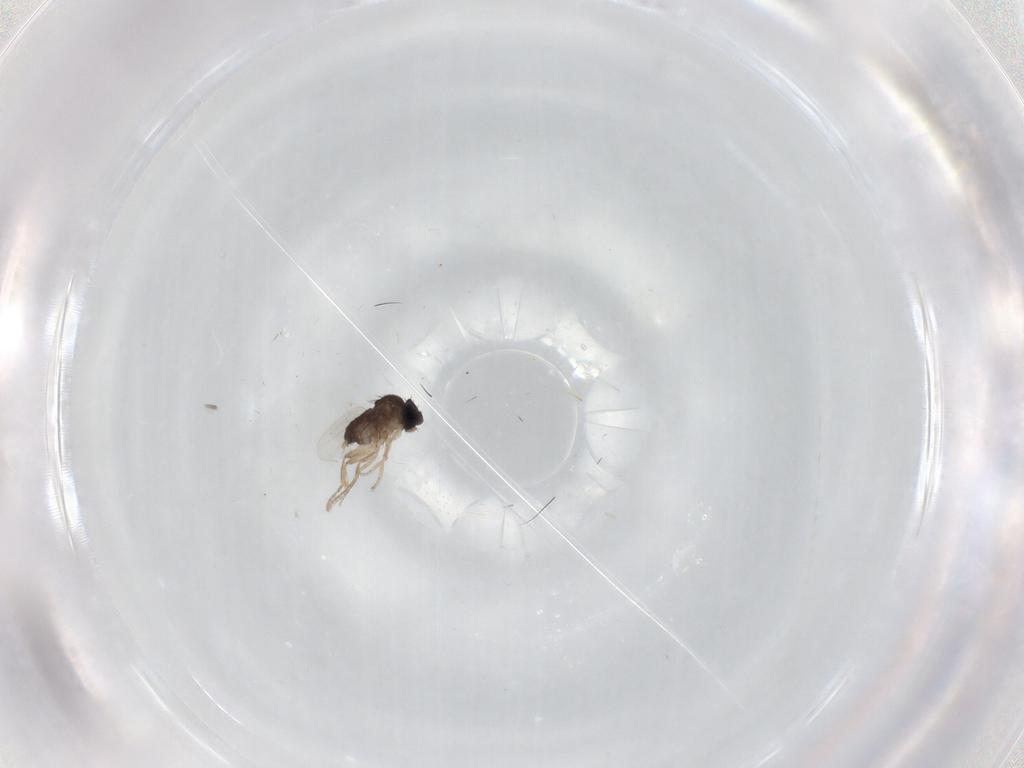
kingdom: Animalia
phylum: Arthropoda
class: Insecta
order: Diptera
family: Phoridae
